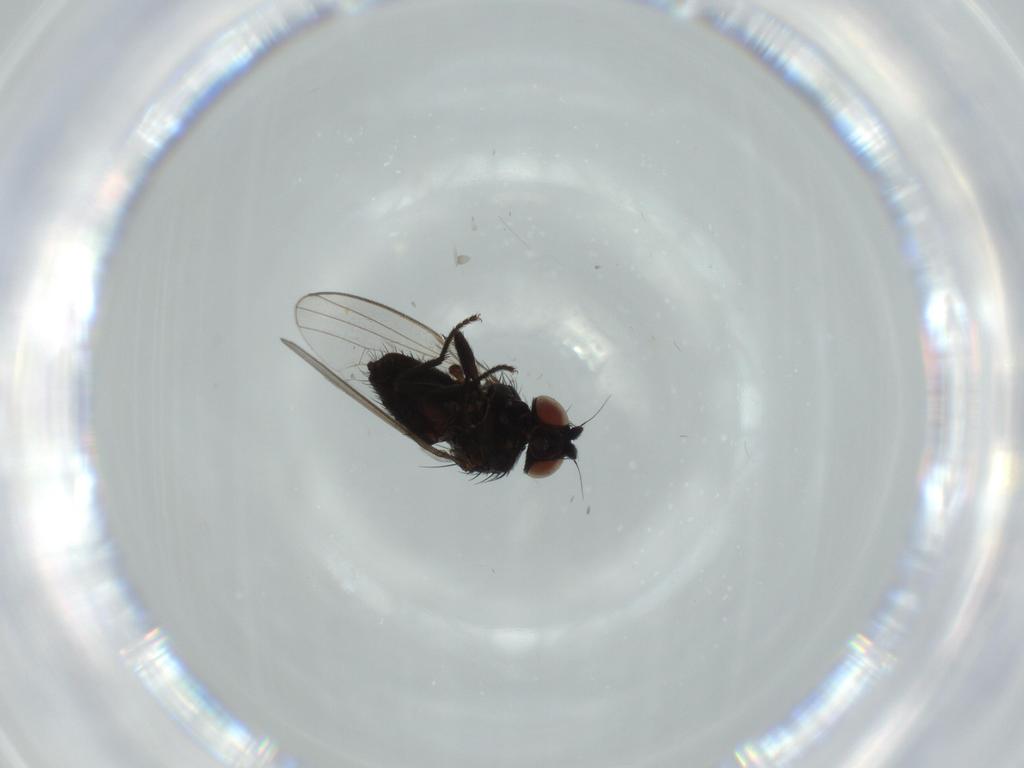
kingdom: Animalia
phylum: Arthropoda
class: Insecta
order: Diptera
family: Milichiidae
